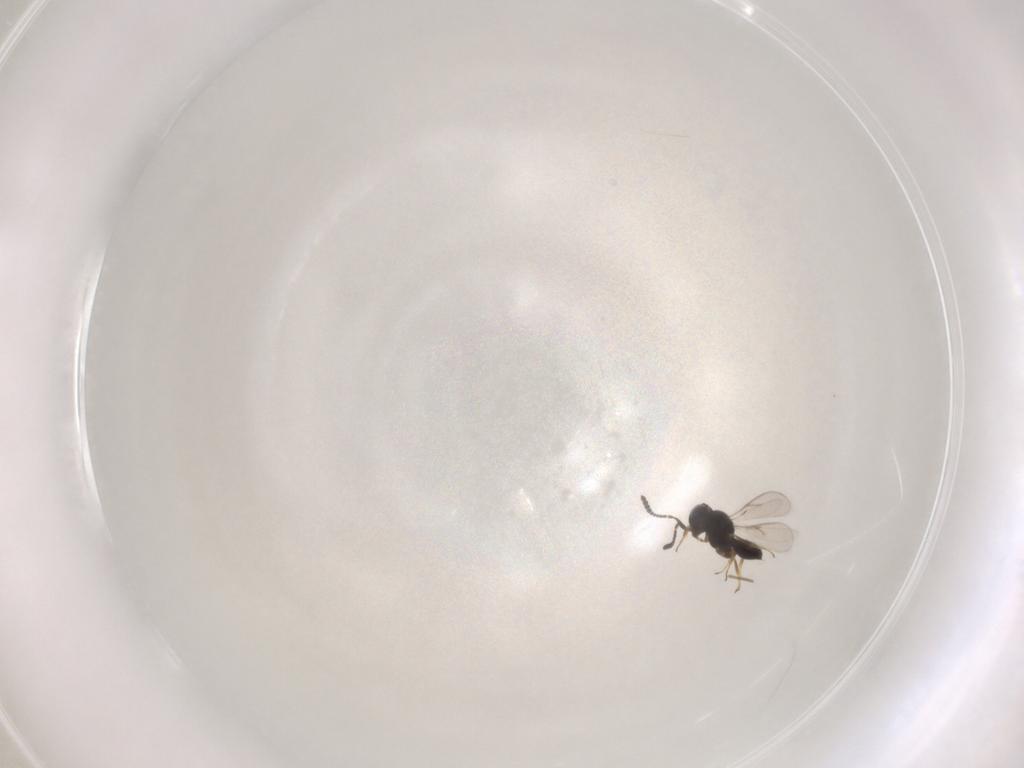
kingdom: Animalia
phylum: Arthropoda
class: Insecta
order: Hymenoptera
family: Scelionidae
